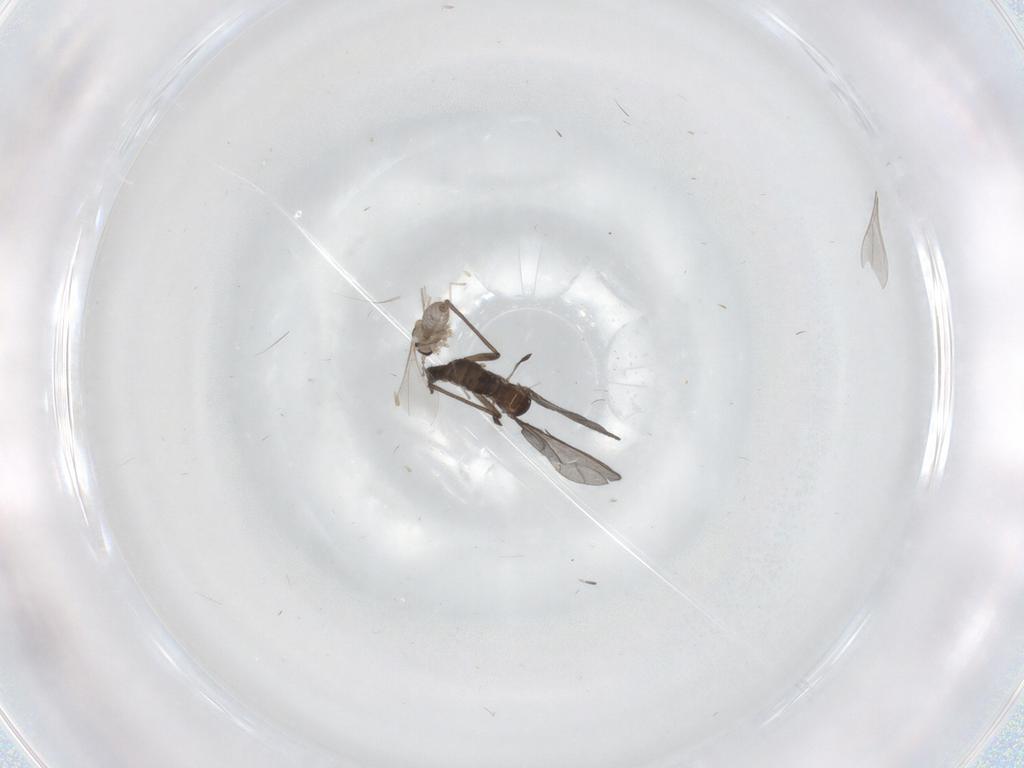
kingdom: Animalia
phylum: Arthropoda
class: Insecta
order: Diptera
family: Sciaridae
